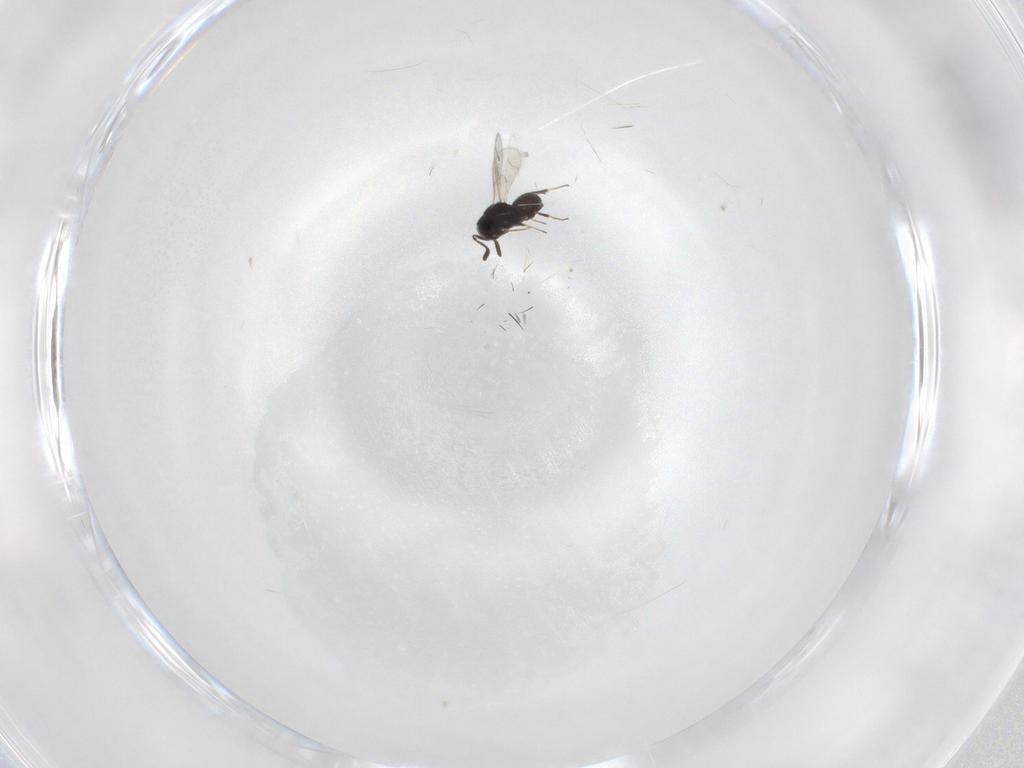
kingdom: Animalia
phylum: Arthropoda
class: Insecta
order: Hymenoptera
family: Scelionidae
